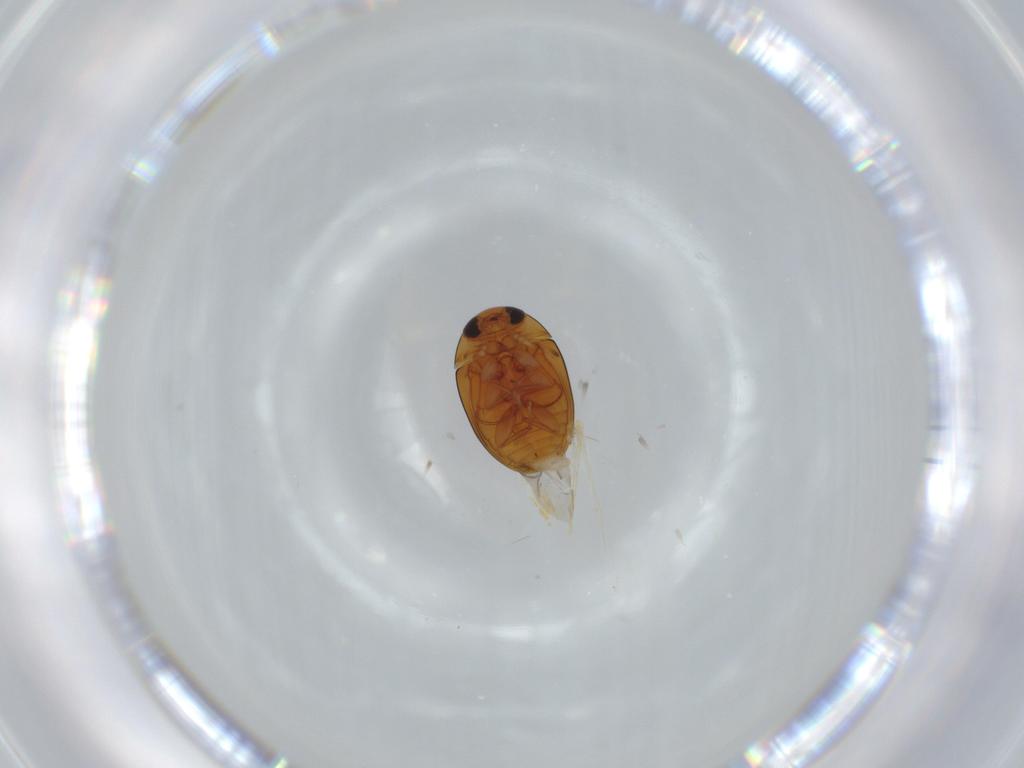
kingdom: Animalia
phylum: Arthropoda
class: Insecta
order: Coleoptera
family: Phalacridae
